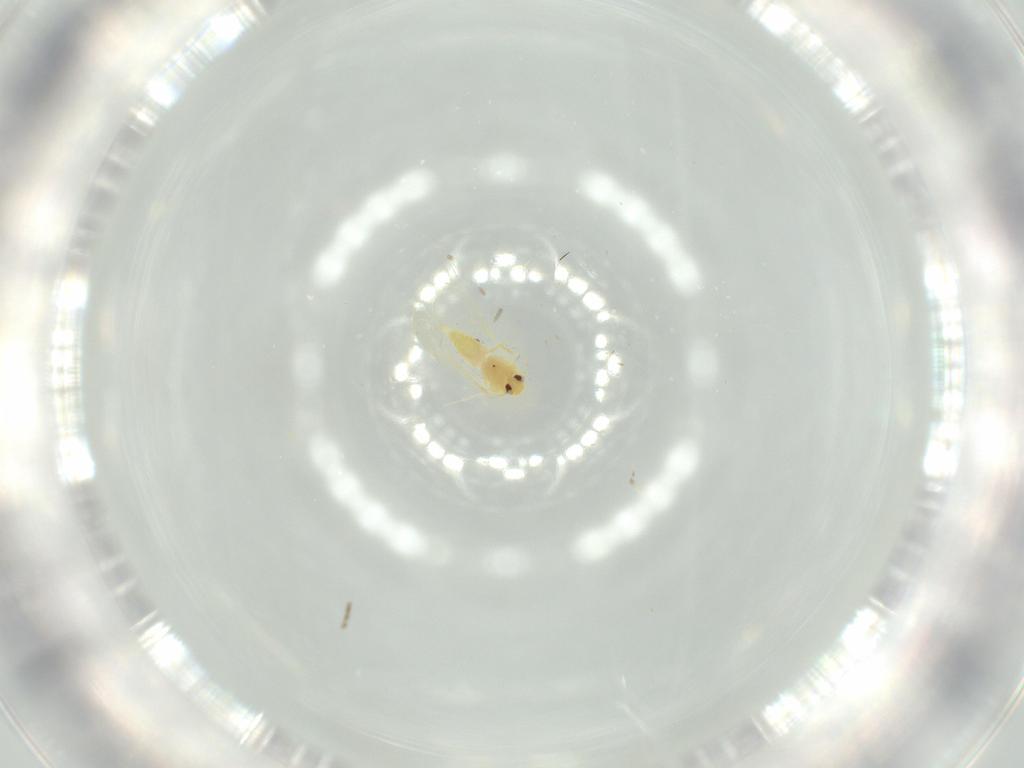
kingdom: Animalia
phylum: Arthropoda
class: Insecta
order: Hemiptera
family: Aleyrodidae
